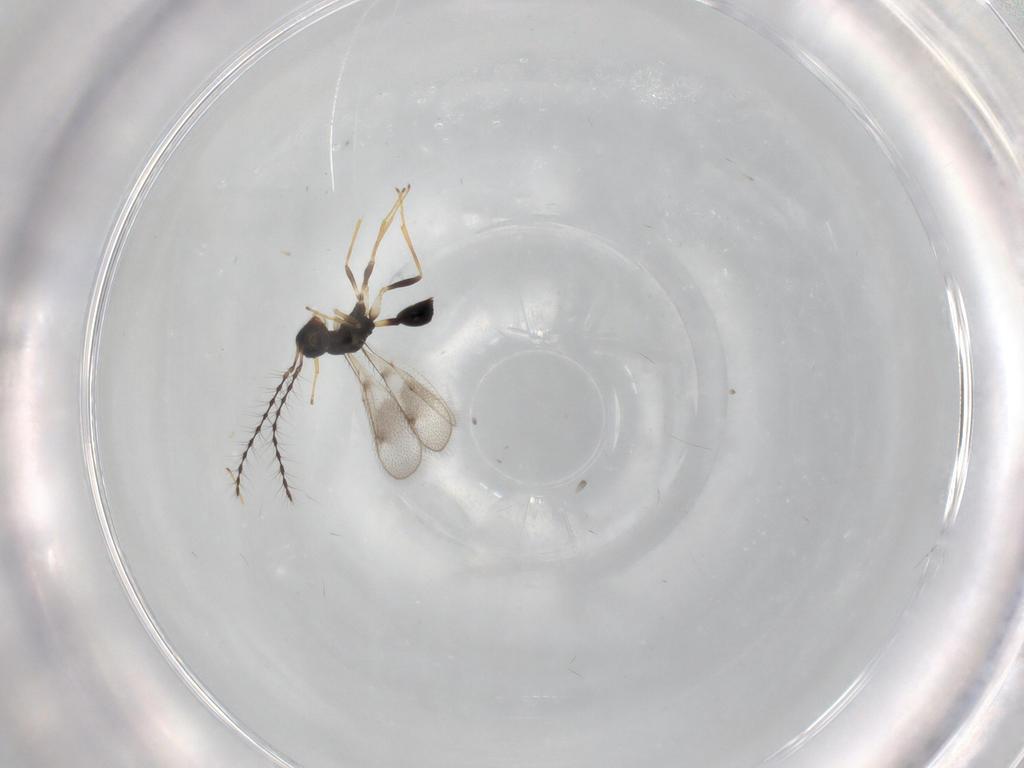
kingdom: Animalia
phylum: Arthropoda
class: Insecta
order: Hymenoptera
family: Diparidae
